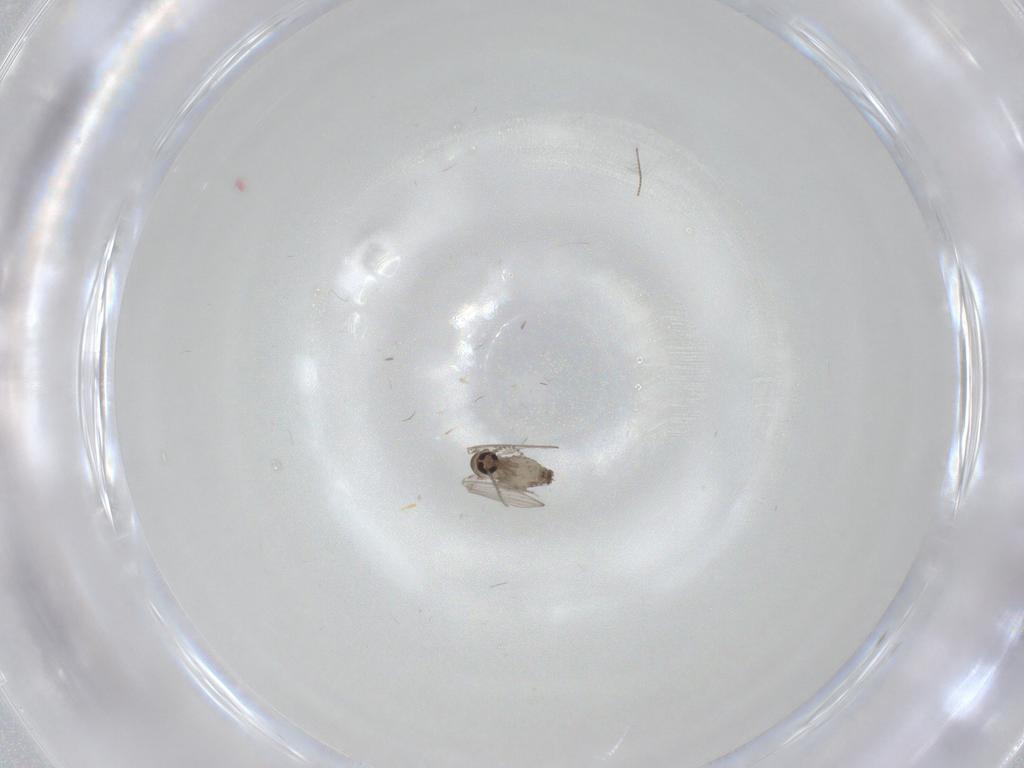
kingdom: Animalia
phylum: Arthropoda
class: Insecta
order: Diptera
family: Psychodidae
